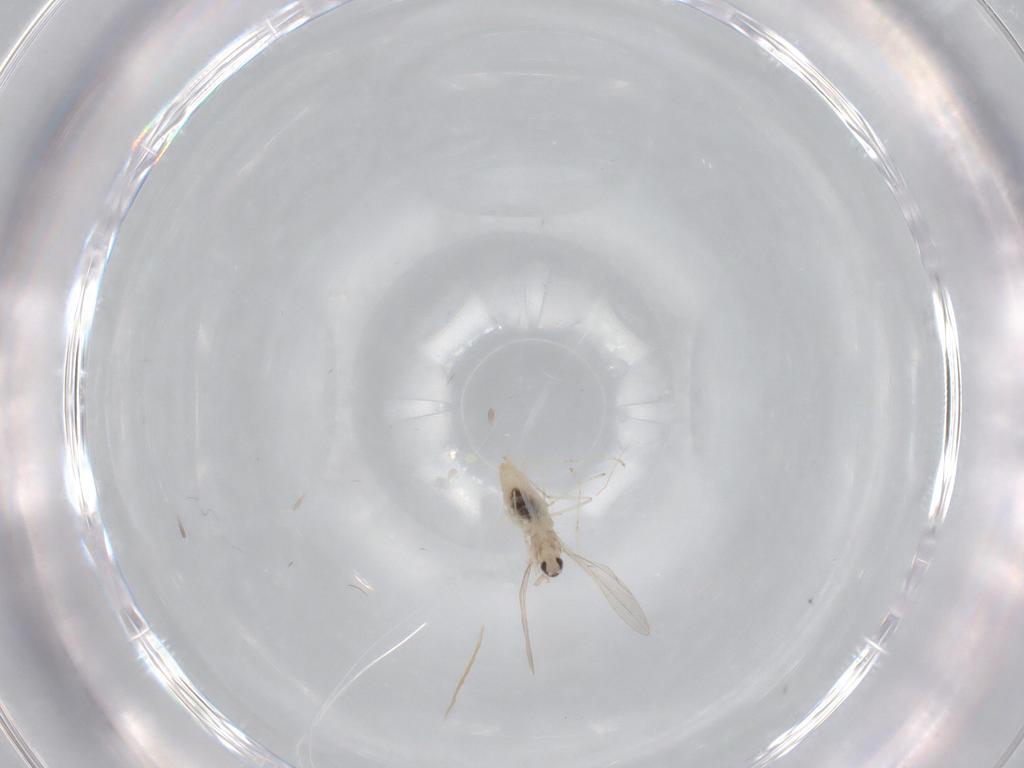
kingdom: Animalia
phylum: Arthropoda
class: Insecta
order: Diptera
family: Cecidomyiidae
